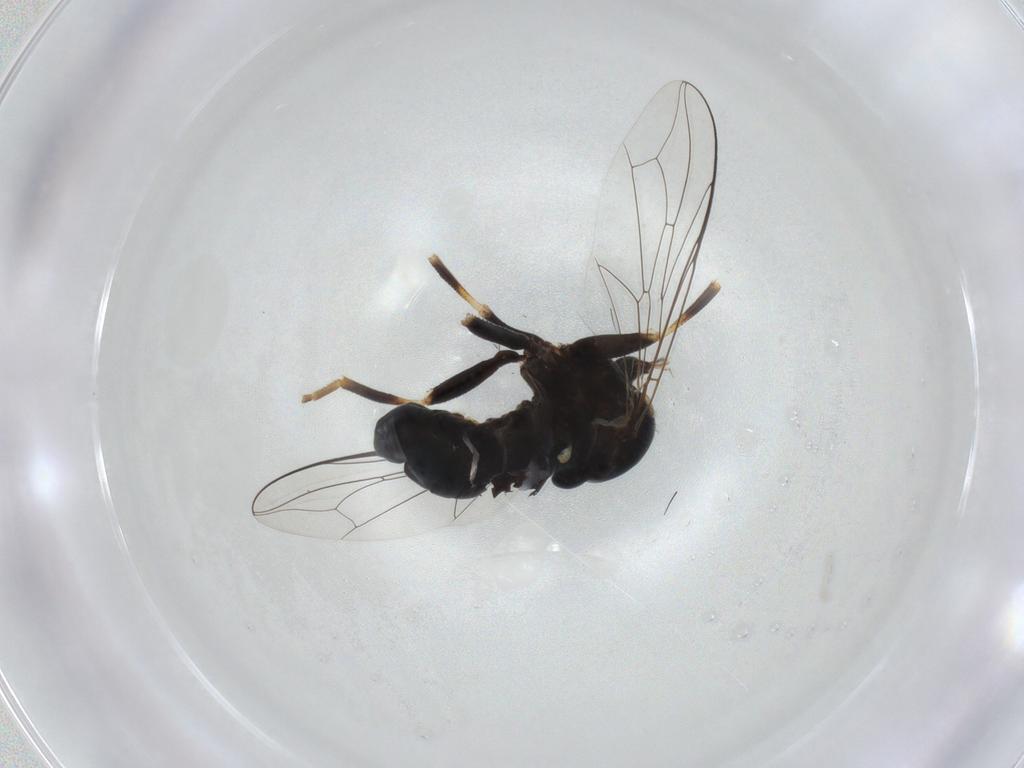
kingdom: Animalia
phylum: Arthropoda
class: Insecta
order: Diptera
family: Pipunculidae
